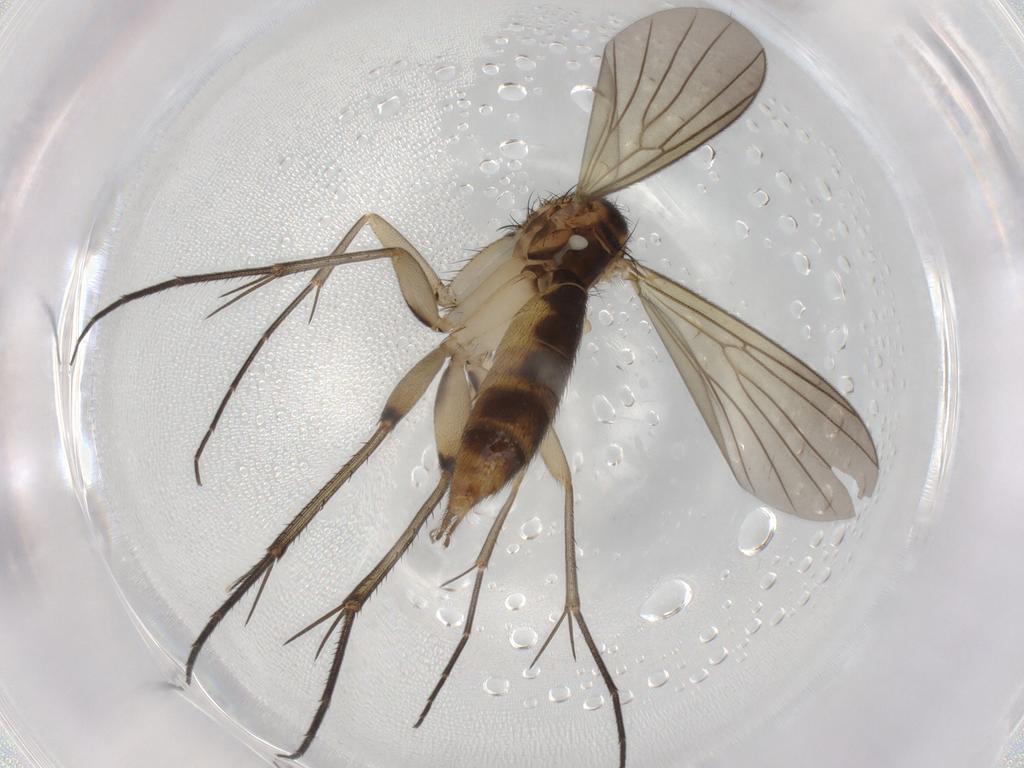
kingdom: Animalia
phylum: Arthropoda
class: Insecta
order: Diptera
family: Mycetophilidae
